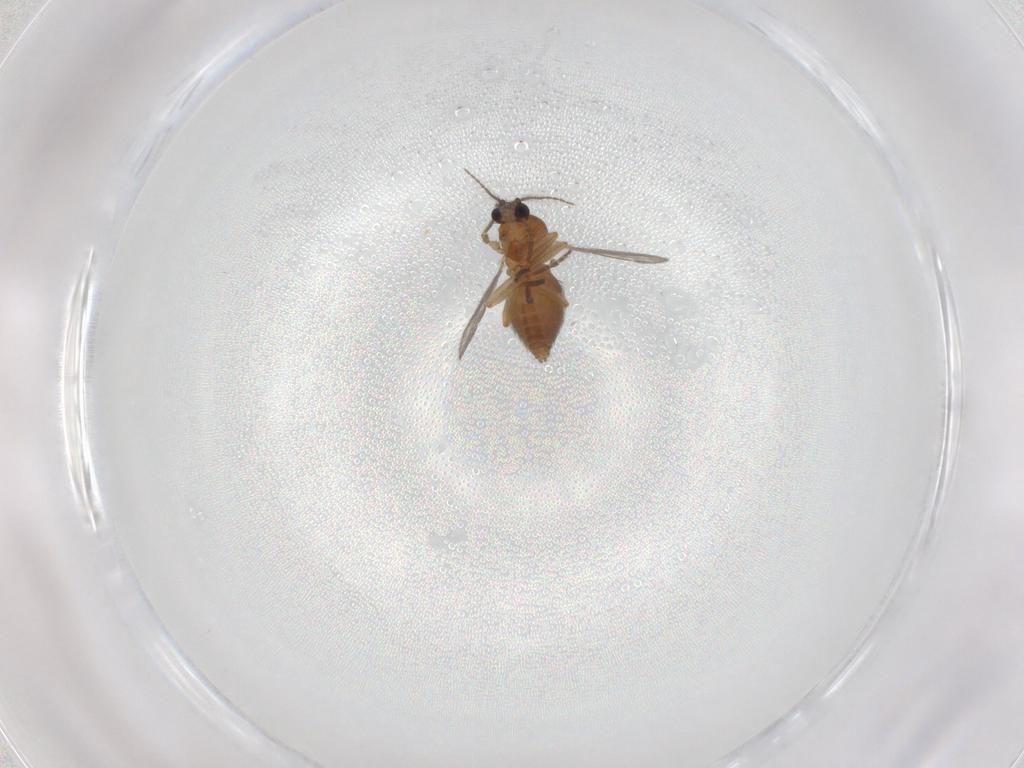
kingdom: Animalia
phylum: Arthropoda
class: Insecta
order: Diptera
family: Ceratopogonidae
